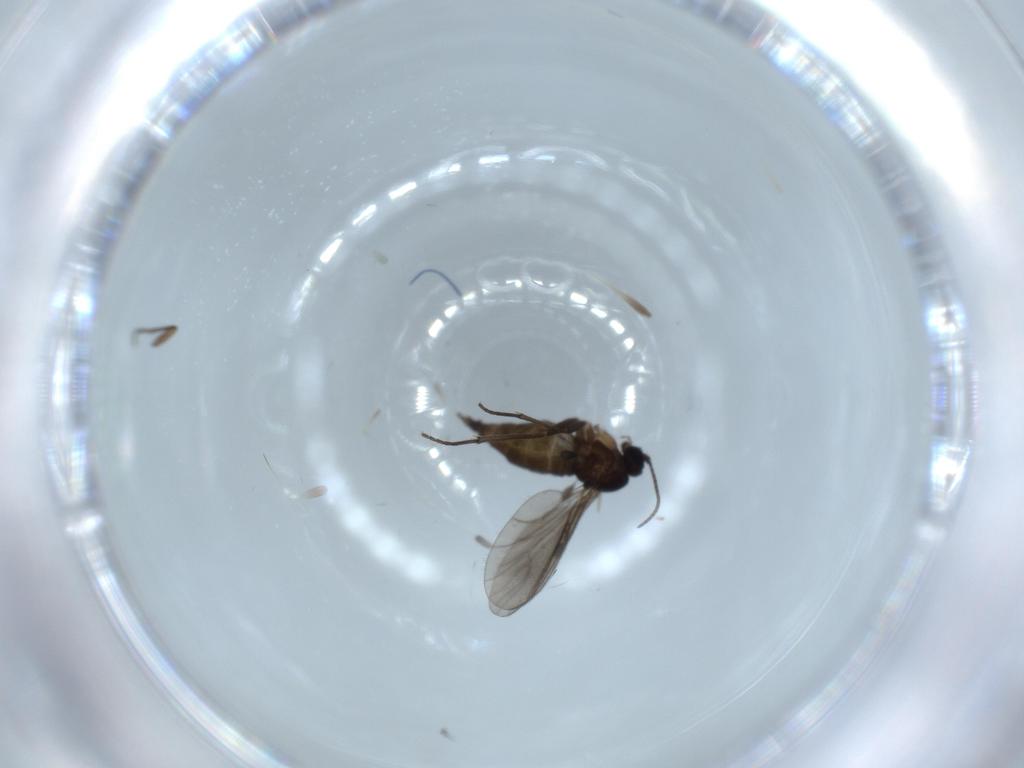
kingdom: Animalia
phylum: Arthropoda
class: Insecta
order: Diptera
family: Sciaridae
